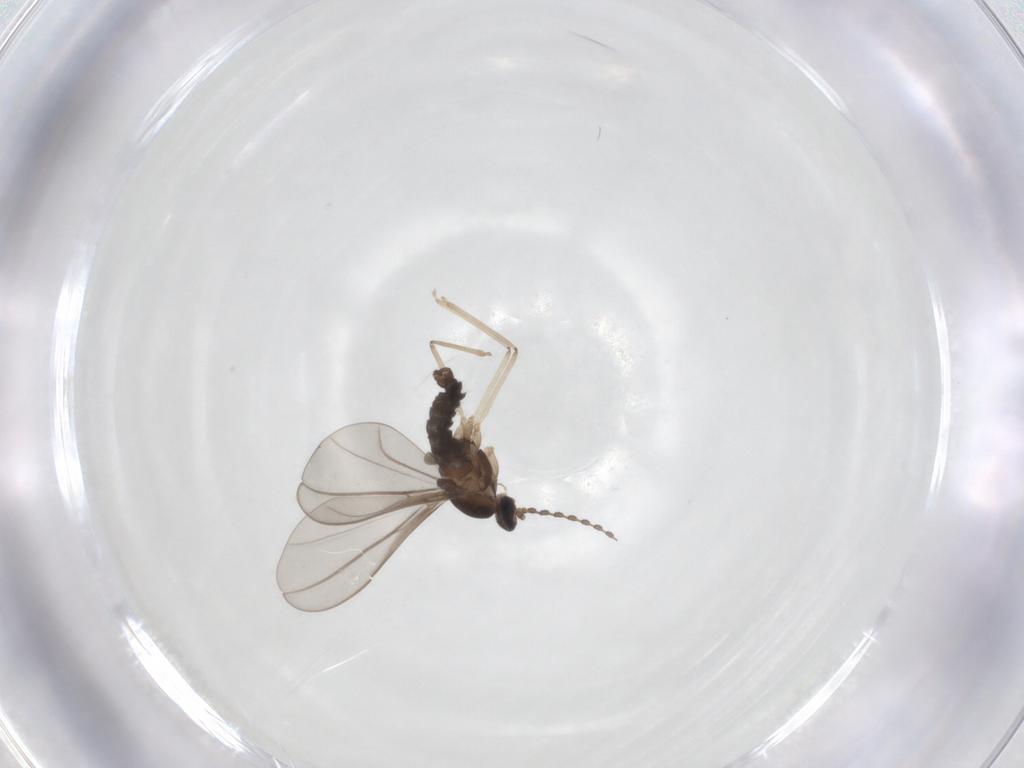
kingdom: Animalia
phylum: Arthropoda
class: Insecta
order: Diptera
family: Cecidomyiidae
